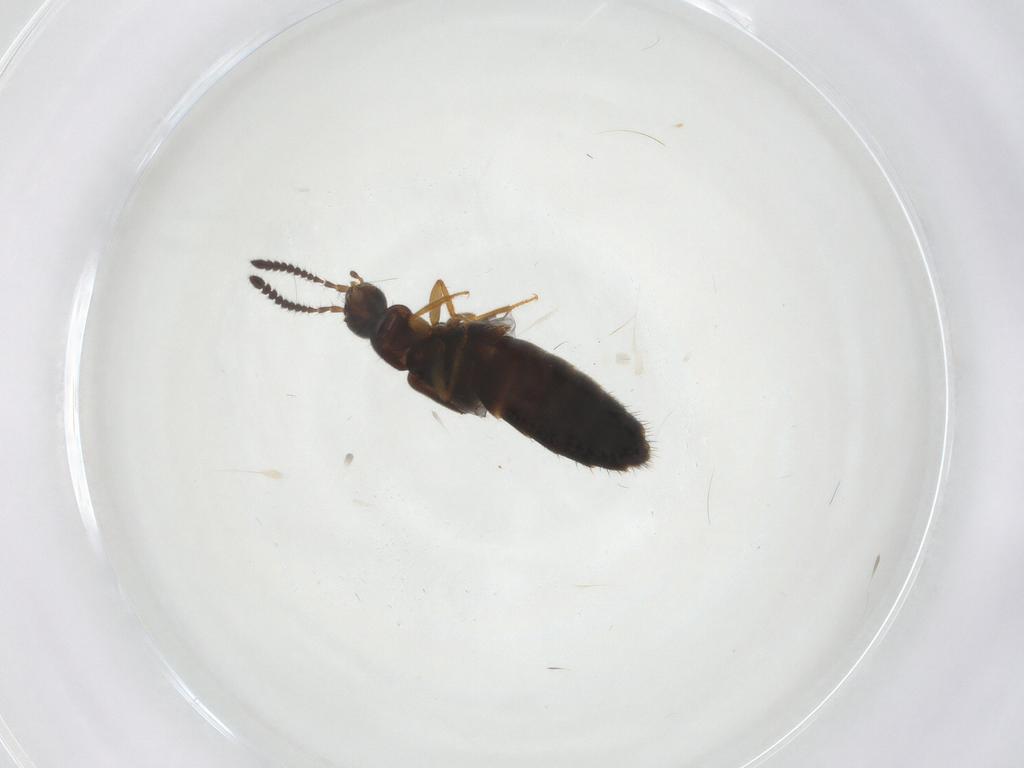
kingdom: Animalia
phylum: Arthropoda
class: Insecta
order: Coleoptera
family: Staphylinidae
